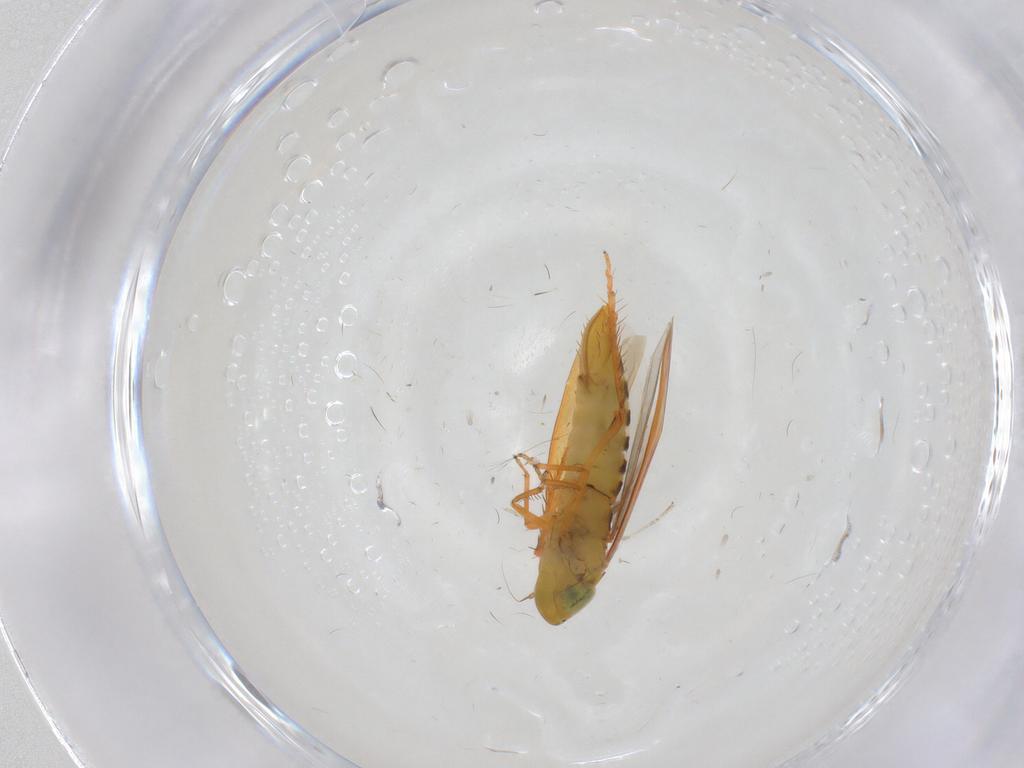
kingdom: Animalia
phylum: Arthropoda
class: Insecta
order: Hemiptera
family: Cicadellidae
